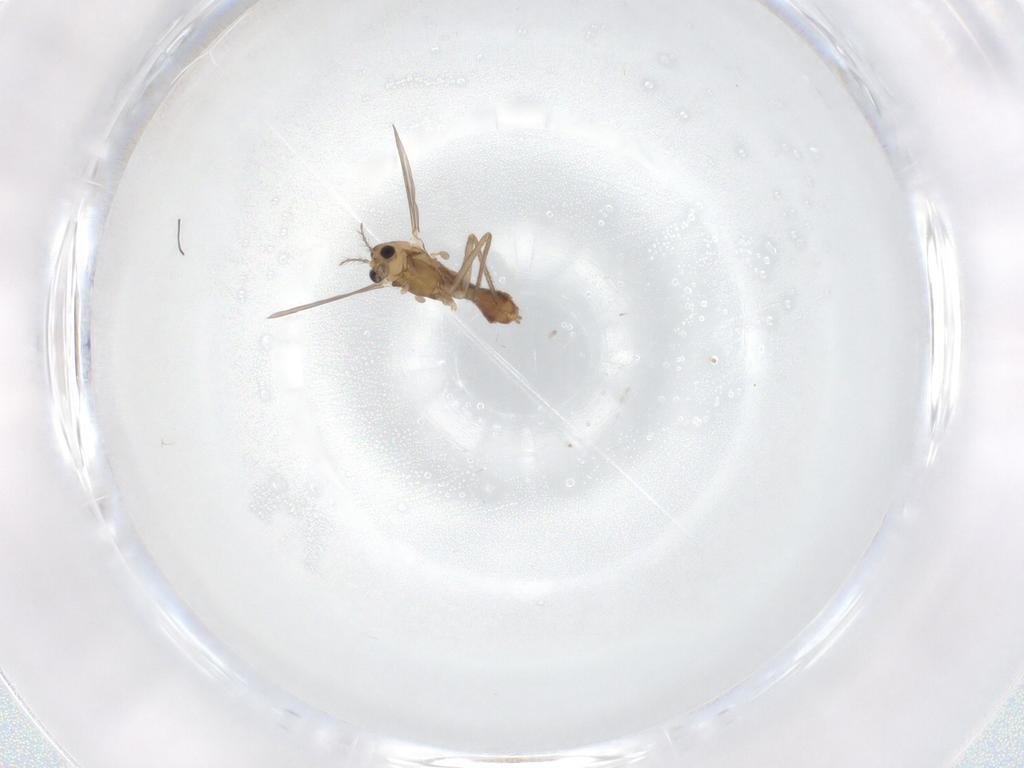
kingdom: Animalia
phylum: Arthropoda
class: Insecta
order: Diptera
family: Chironomidae
